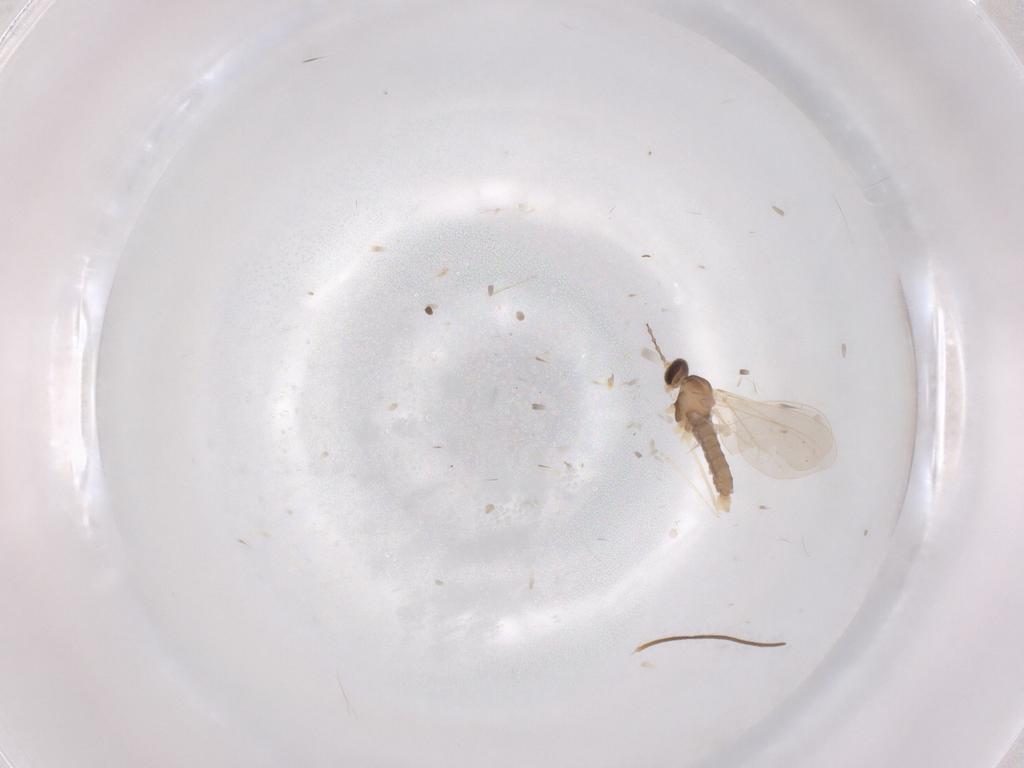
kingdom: Animalia
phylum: Arthropoda
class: Insecta
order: Diptera
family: Cecidomyiidae
